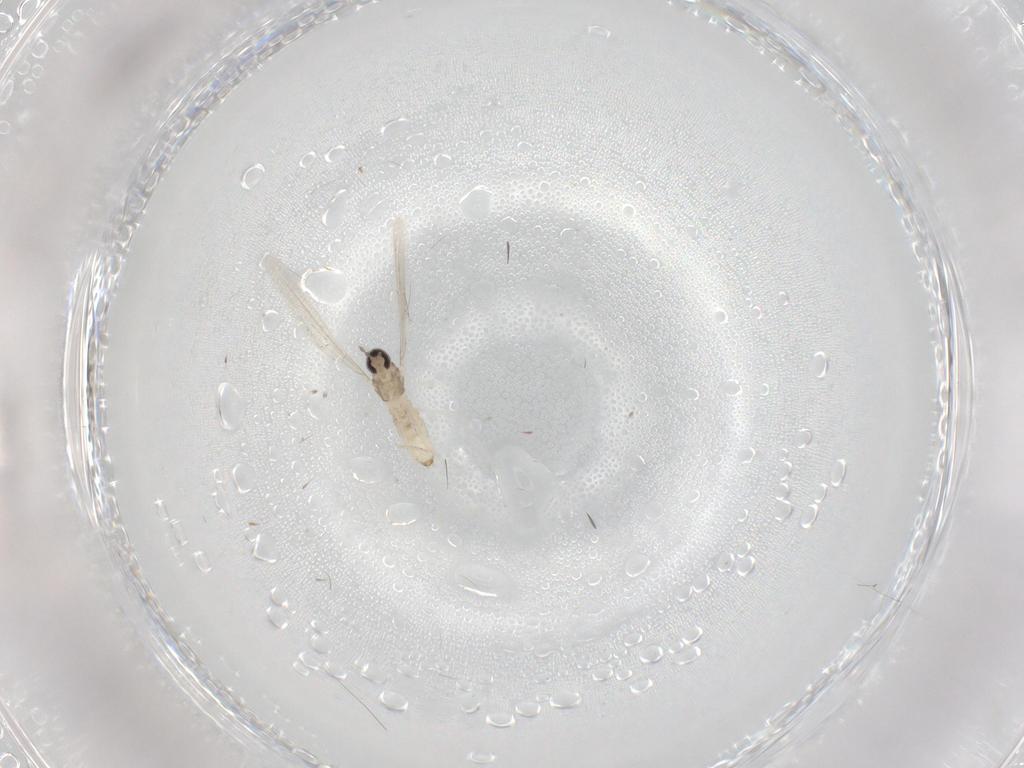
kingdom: Animalia
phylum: Arthropoda
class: Insecta
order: Diptera
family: Cecidomyiidae
